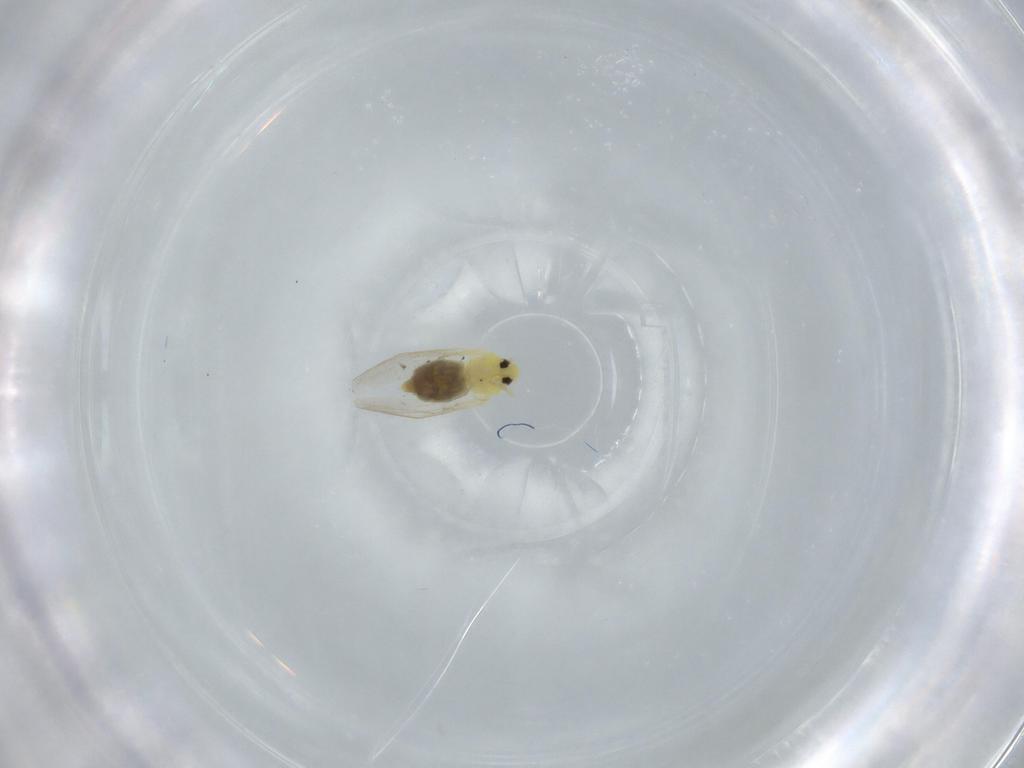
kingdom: Animalia
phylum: Arthropoda
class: Insecta
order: Hemiptera
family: Aleyrodidae
